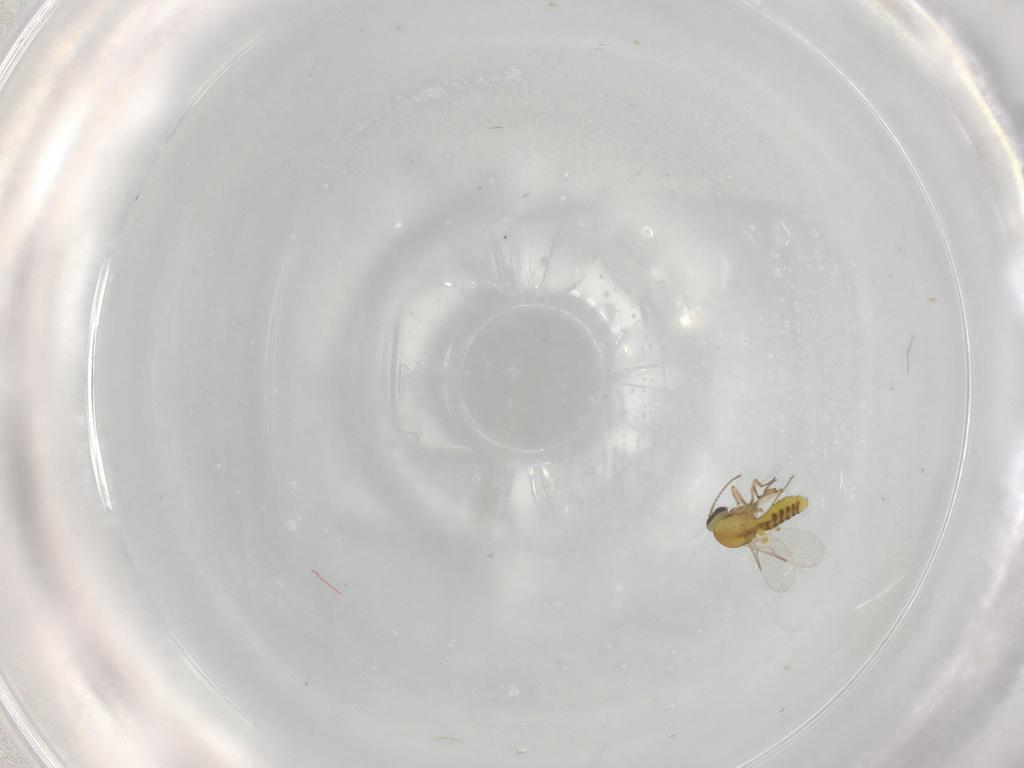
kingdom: Animalia
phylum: Arthropoda
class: Insecta
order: Diptera
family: Ceratopogonidae
